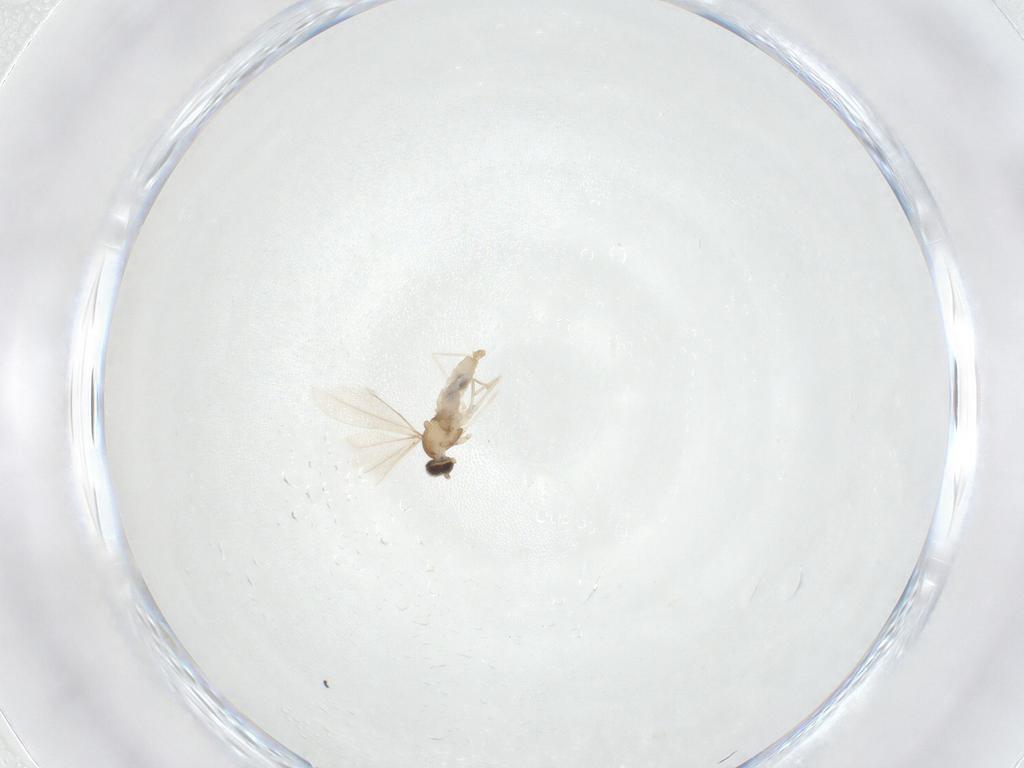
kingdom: Animalia
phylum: Arthropoda
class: Insecta
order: Diptera
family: Cecidomyiidae
